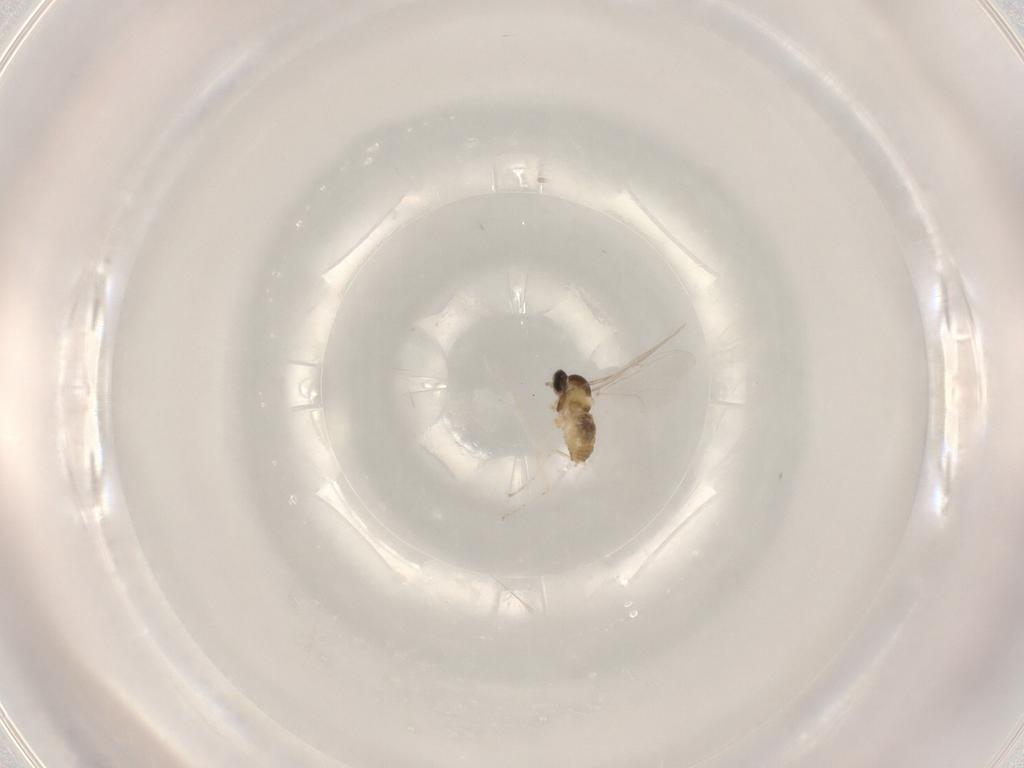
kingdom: Animalia
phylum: Arthropoda
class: Insecta
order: Diptera
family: Cecidomyiidae
